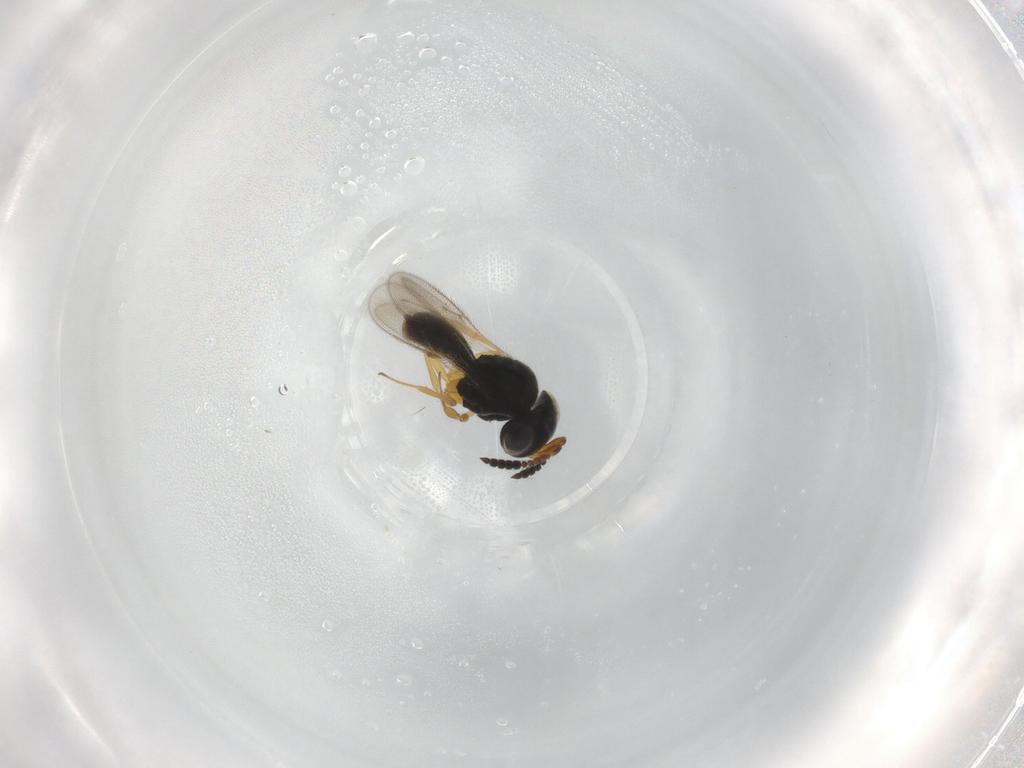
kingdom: Animalia
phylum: Arthropoda
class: Insecta
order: Hymenoptera
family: Scelionidae
